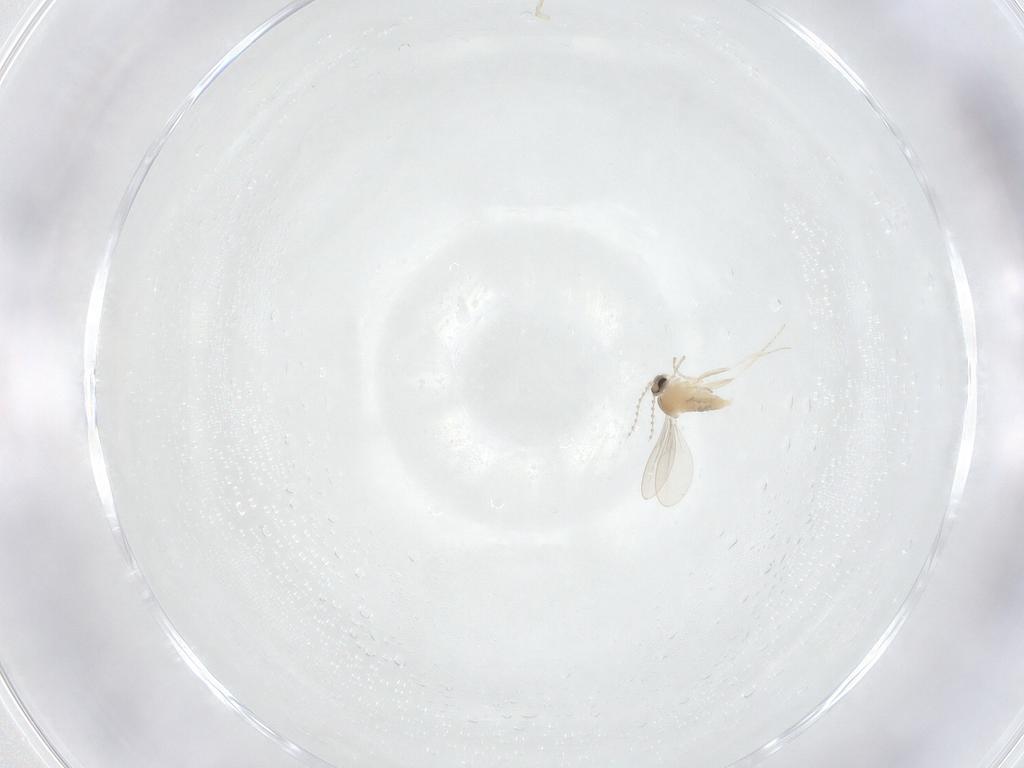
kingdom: Animalia
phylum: Arthropoda
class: Insecta
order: Diptera
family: Cecidomyiidae
